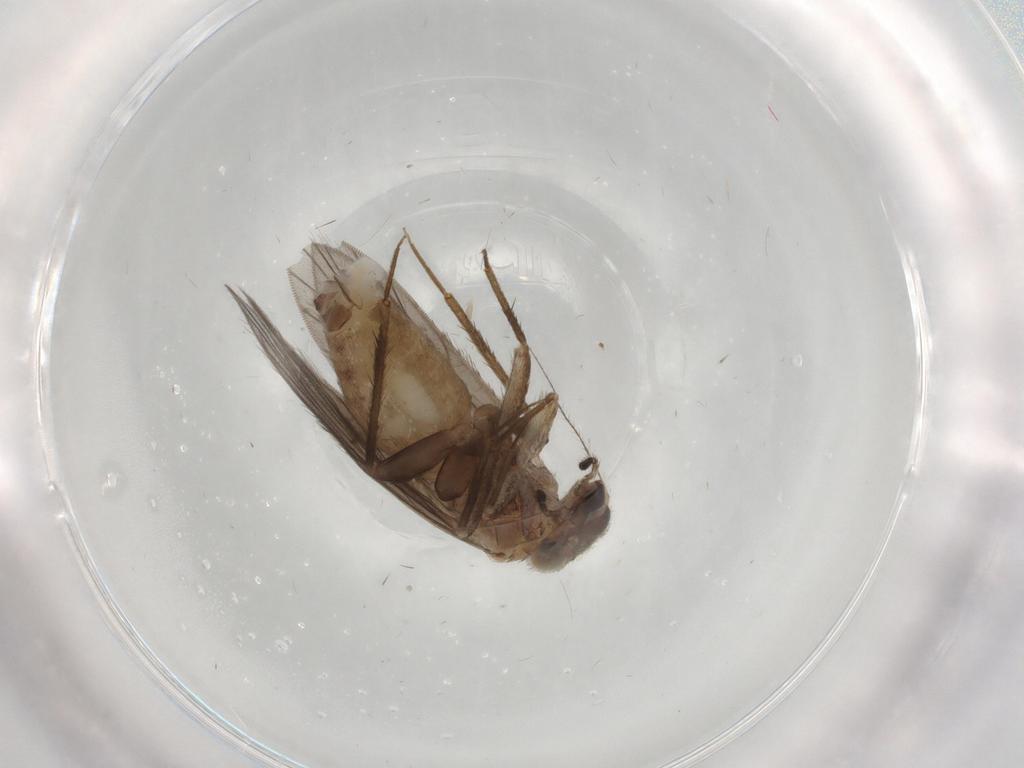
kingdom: Animalia
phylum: Arthropoda
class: Insecta
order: Psocodea
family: Lepidopsocidae
